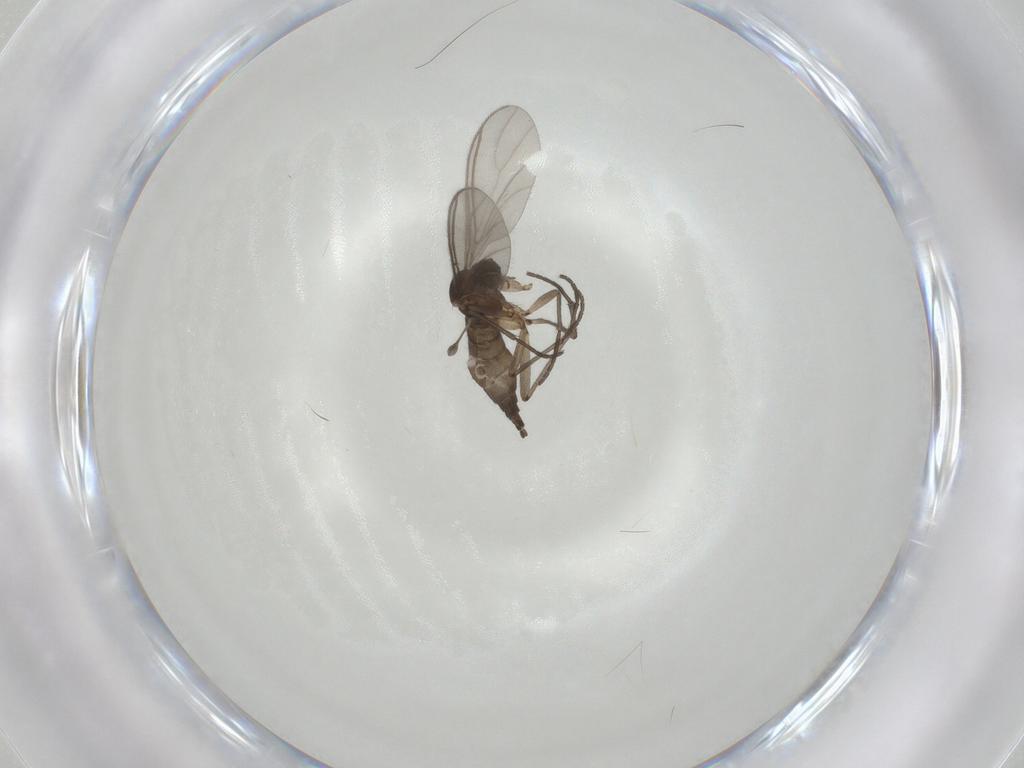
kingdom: Animalia
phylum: Arthropoda
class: Insecta
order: Diptera
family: Sciaridae
